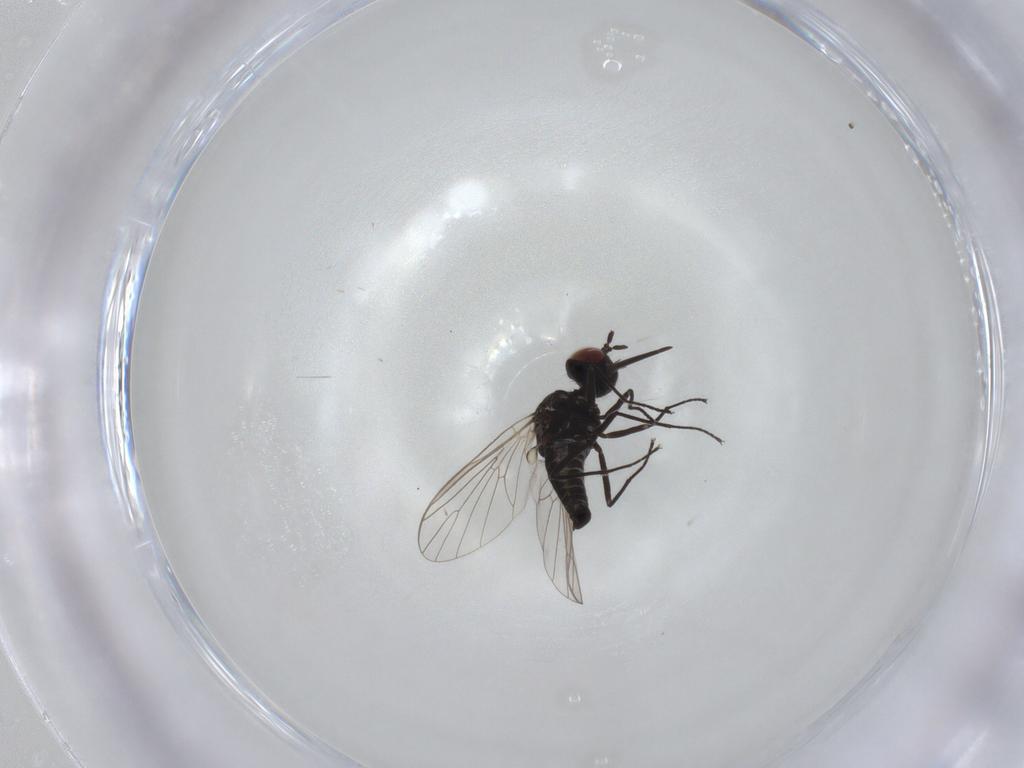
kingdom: Animalia
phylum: Arthropoda
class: Insecta
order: Diptera
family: Bombyliidae
